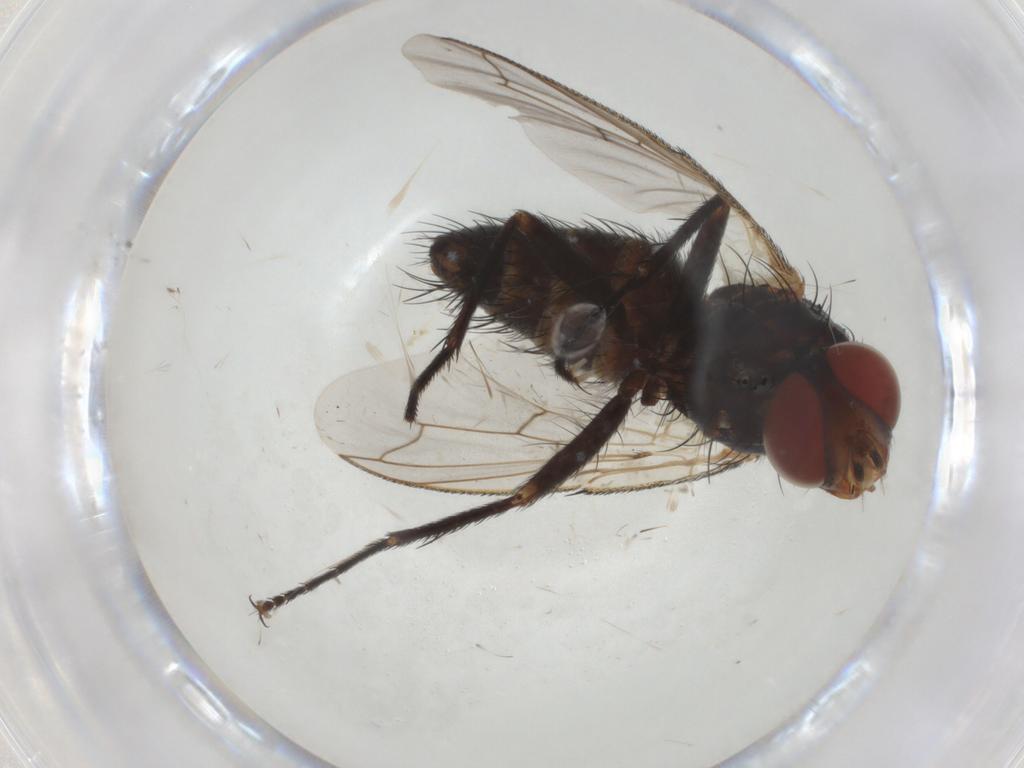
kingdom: Animalia
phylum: Arthropoda
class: Insecta
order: Diptera
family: Tachinidae
